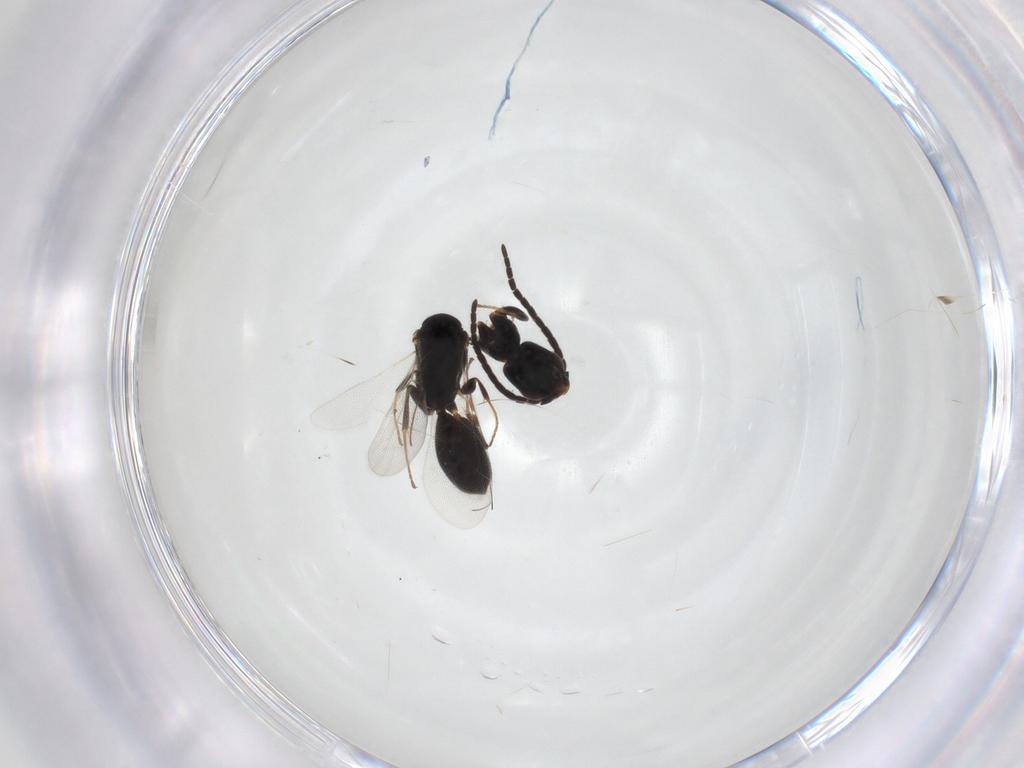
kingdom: Animalia
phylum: Arthropoda
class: Insecta
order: Hymenoptera
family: Bethylidae
